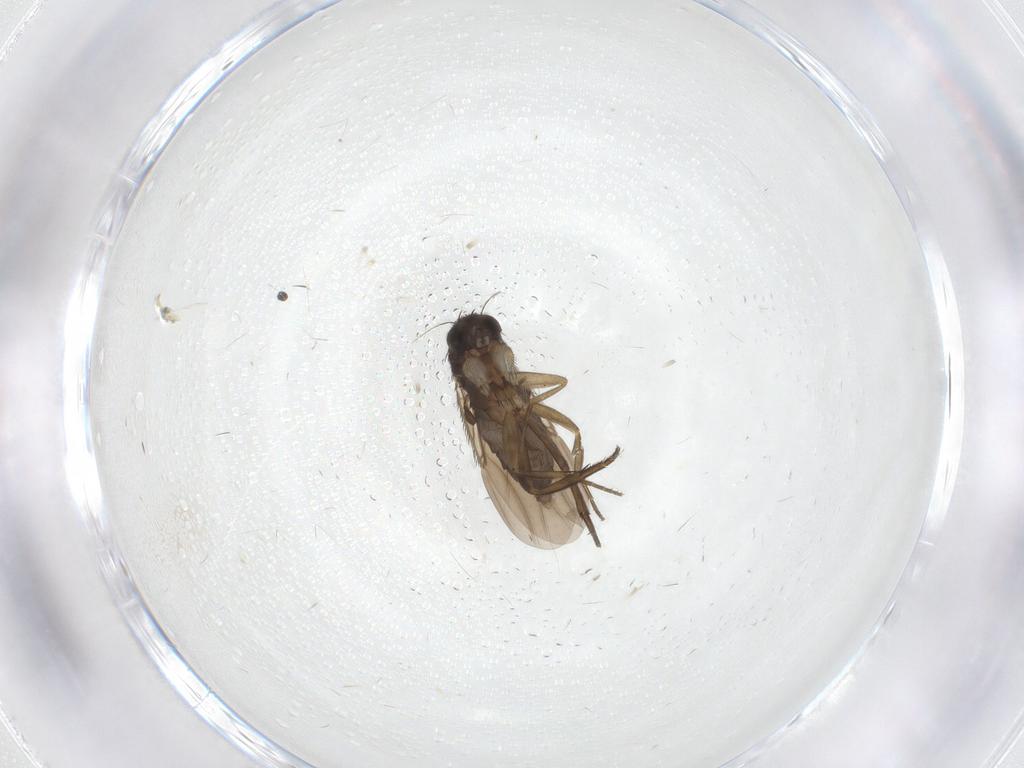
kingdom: Animalia
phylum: Arthropoda
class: Insecta
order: Diptera
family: Phoridae
